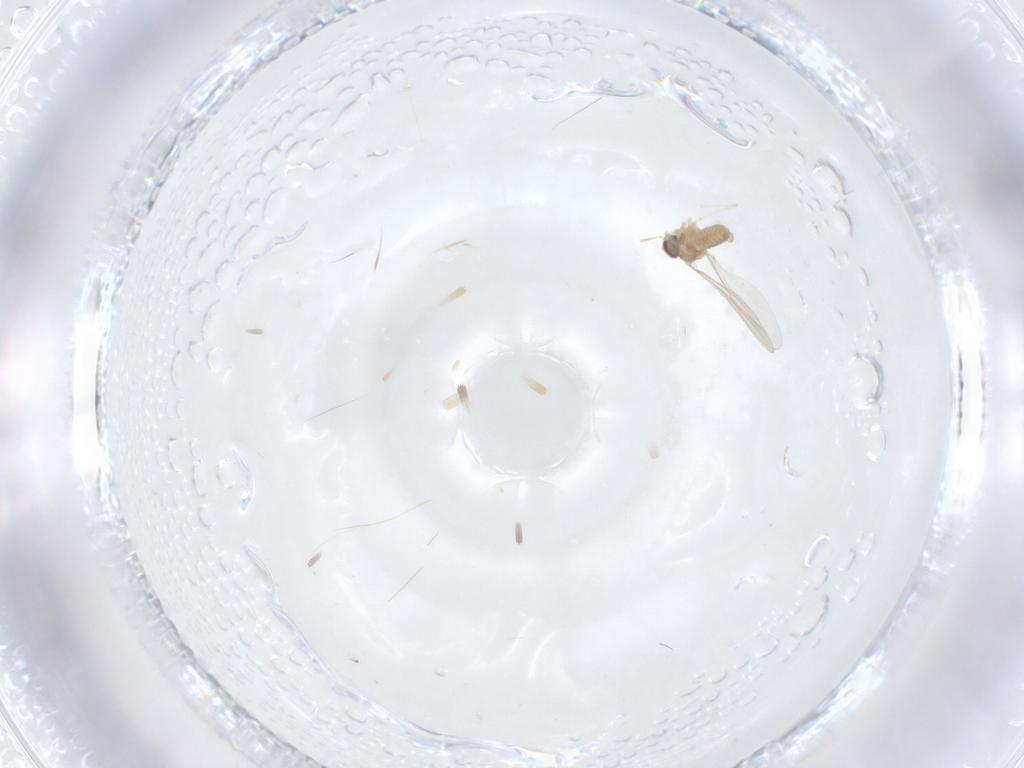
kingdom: Animalia
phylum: Arthropoda
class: Insecta
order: Diptera
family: Cecidomyiidae
